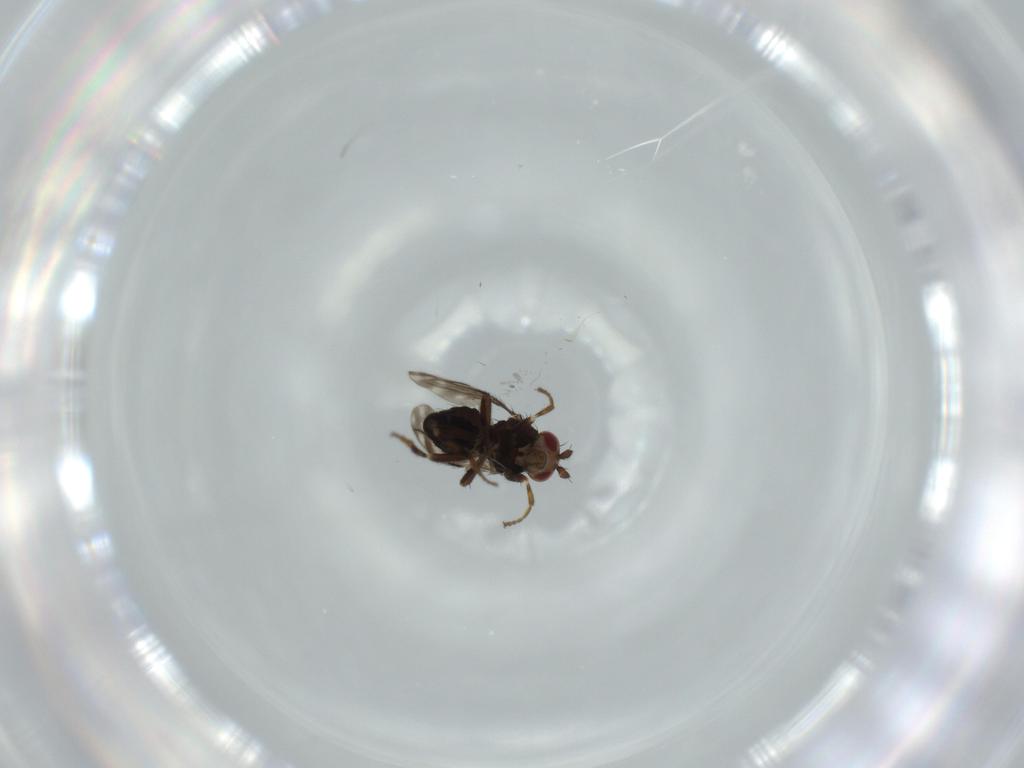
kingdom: Animalia
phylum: Arthropoda
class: Insecta
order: Diptera
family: Sphaeroceridae
